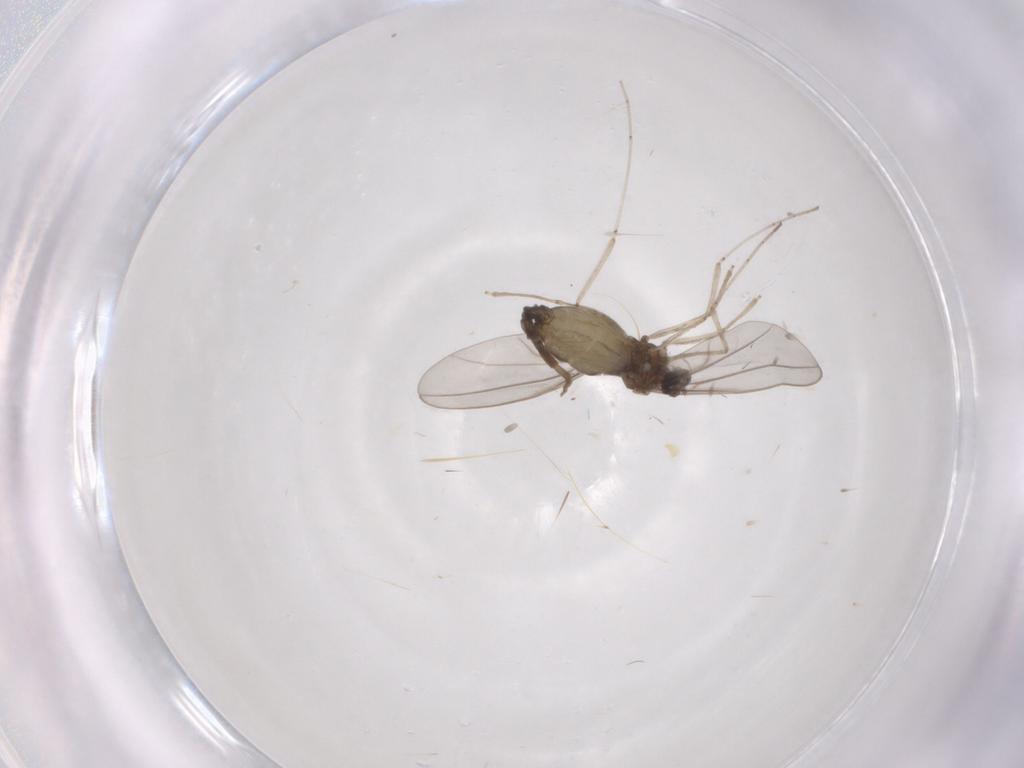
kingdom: Animalia
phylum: Arthropoda
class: Insecta
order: Diptera
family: Cecidomyiidae
